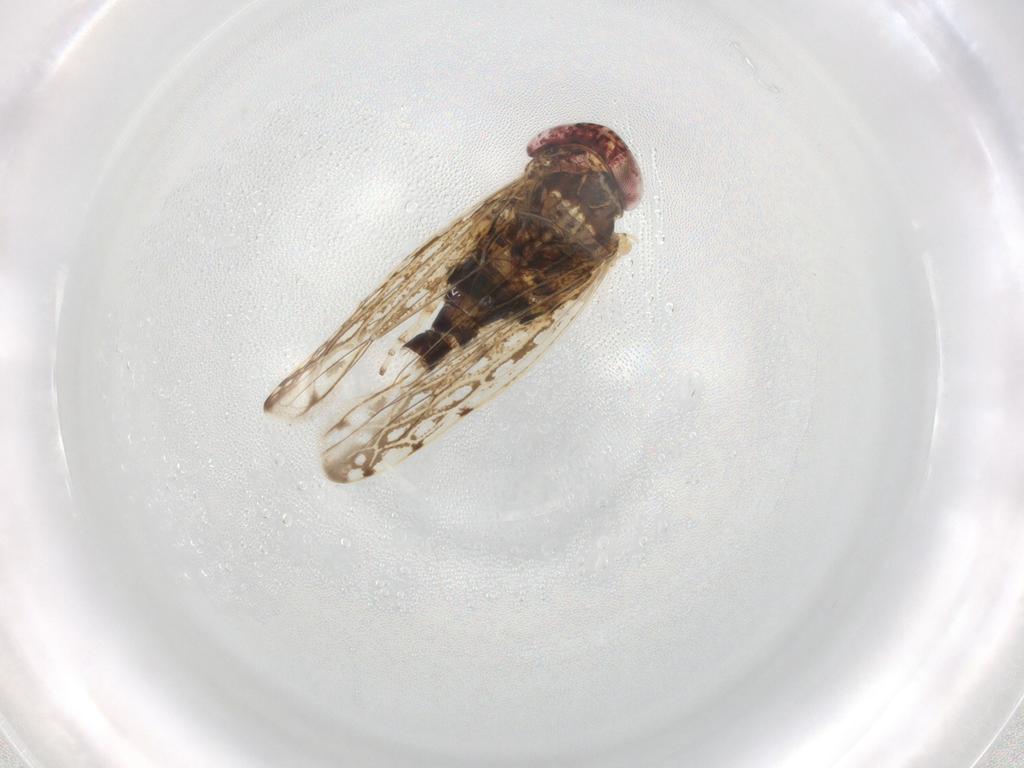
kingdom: Animalia
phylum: Arthropoda
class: Insecta
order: Hemiptera
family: Cicadellidae
